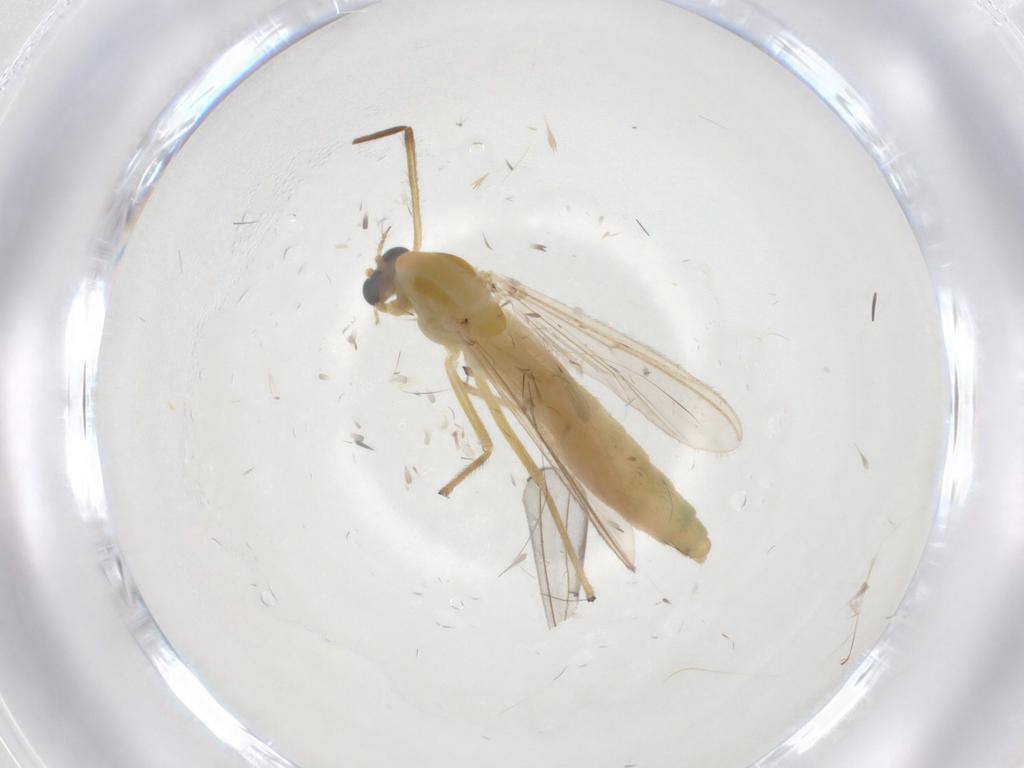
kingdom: Animalia
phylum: Arthropoda
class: Insecta
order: Diptera
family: Chironomidae
